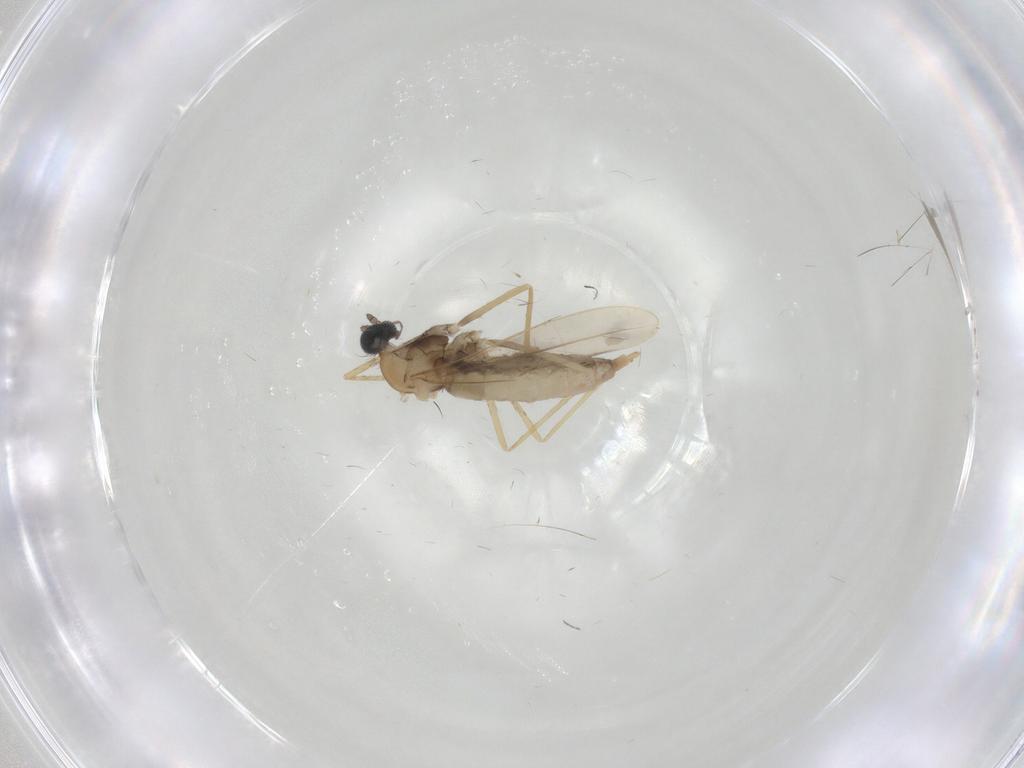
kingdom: Animalia
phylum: Arthropoda
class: Insecta
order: Diptera
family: Cecidomyiidae
